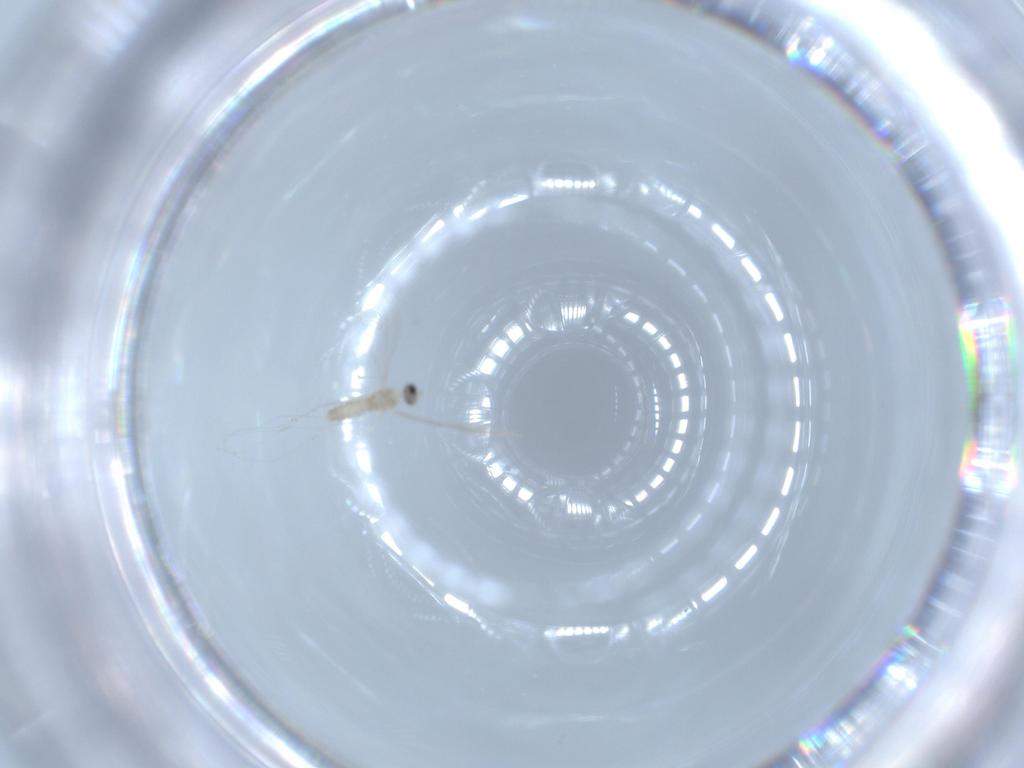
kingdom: Animalia
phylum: Arthropoda
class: Insecta
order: Diptera
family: Cecidomyiidae
